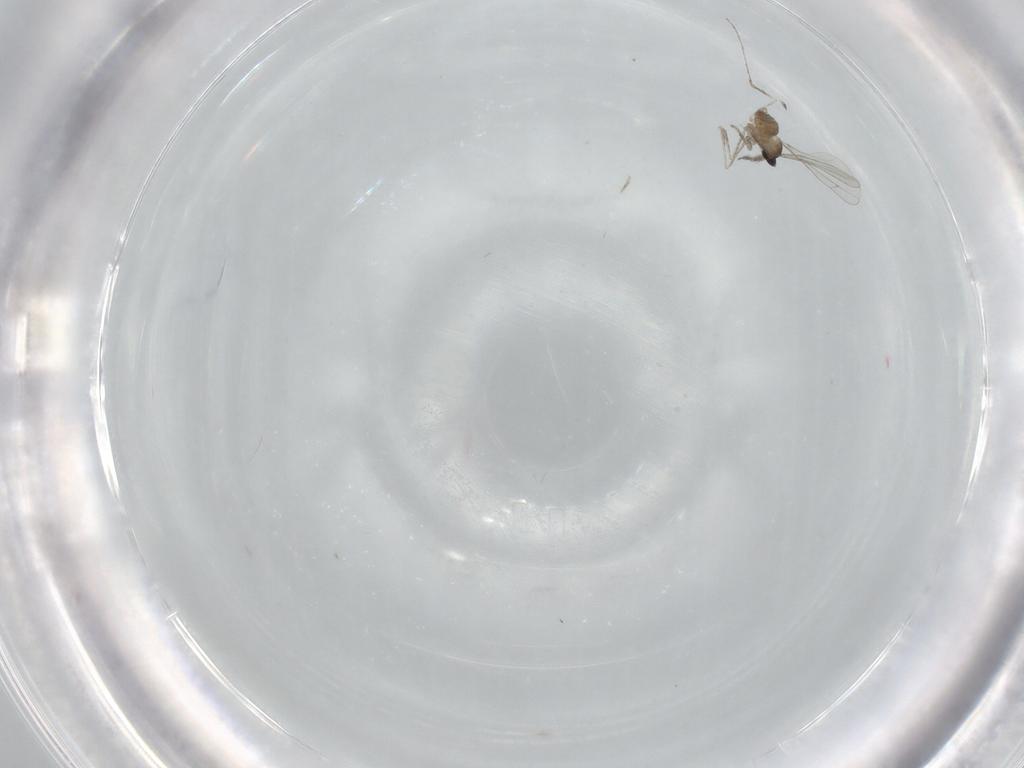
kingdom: Animalia
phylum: Arthropoda
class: Insecta
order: Diptera
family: Cecidomyiidae
